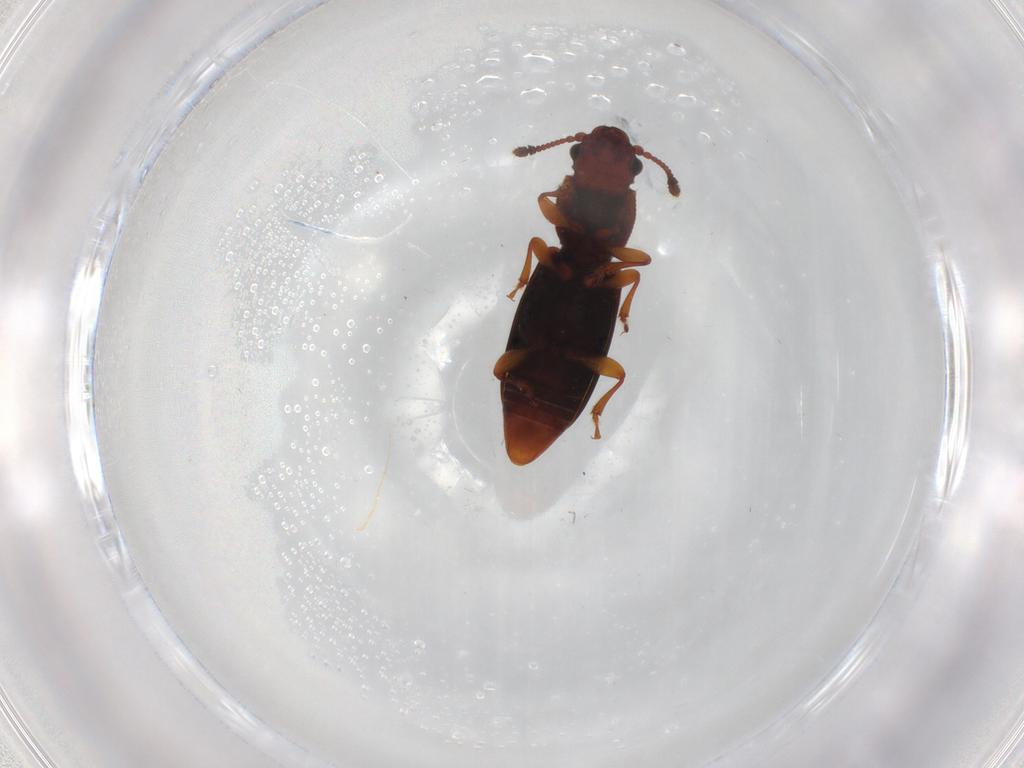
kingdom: Animalia
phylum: Arthropoda
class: Insecta
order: Coleoptera
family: Monotomidae
